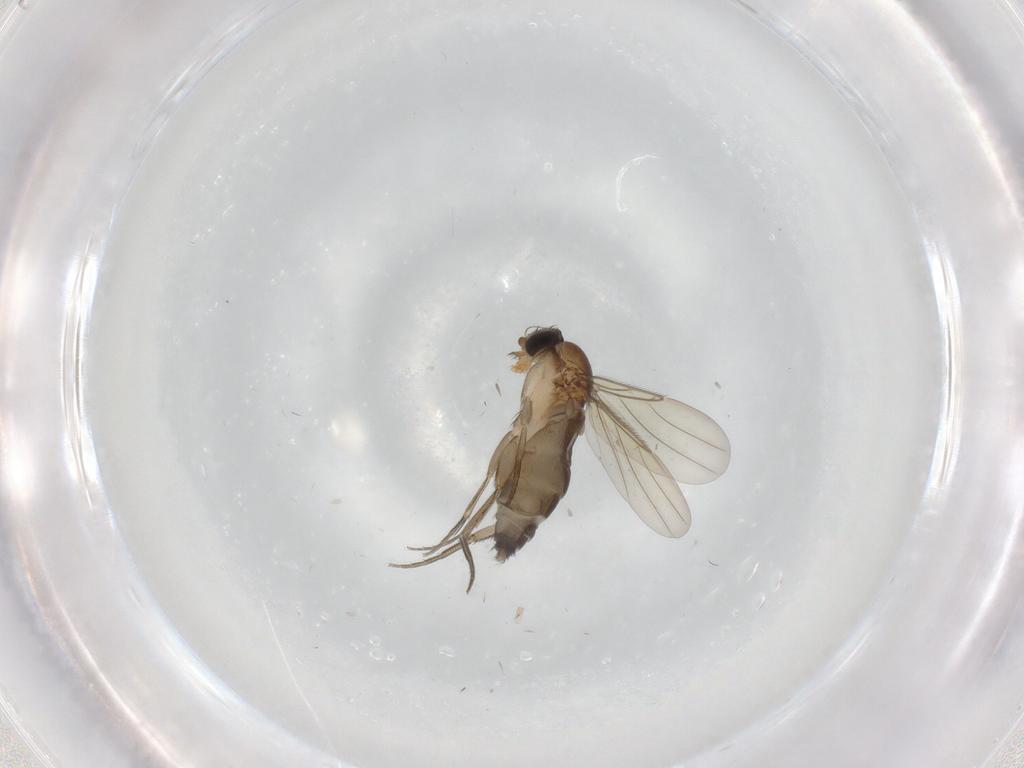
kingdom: Animalia
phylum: Arthropoda
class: Insecta
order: Diptera
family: Phoridae
